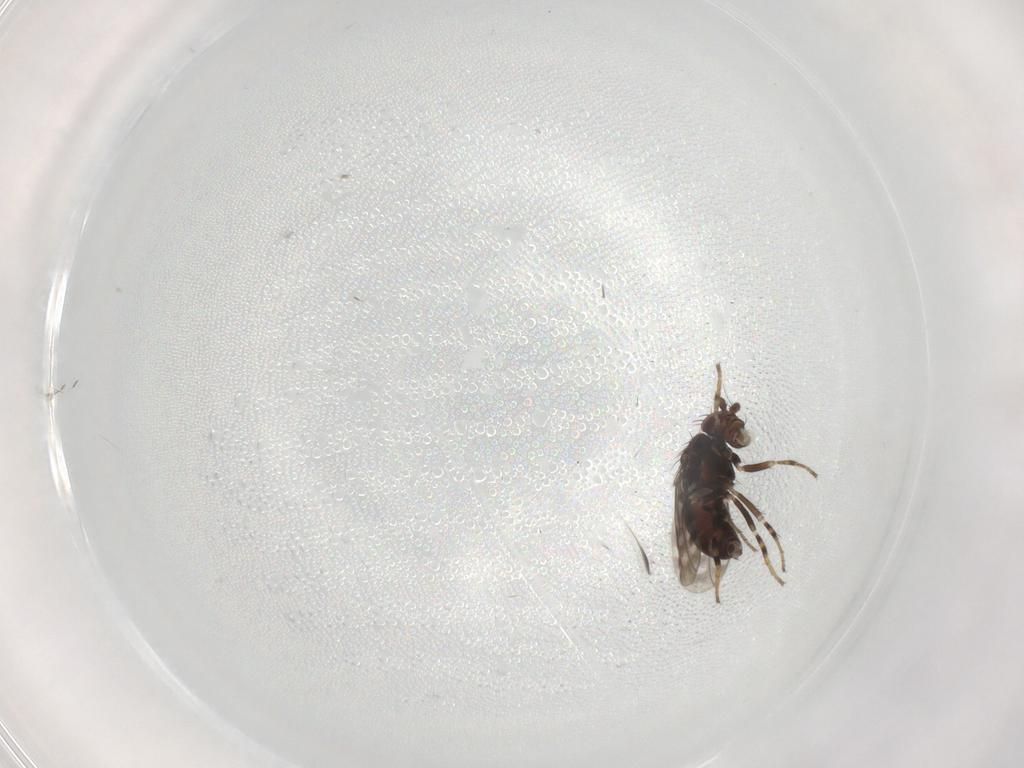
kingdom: Animalia
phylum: Arthropoda
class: Insecta
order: Diptera
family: Sphaeroceridae
